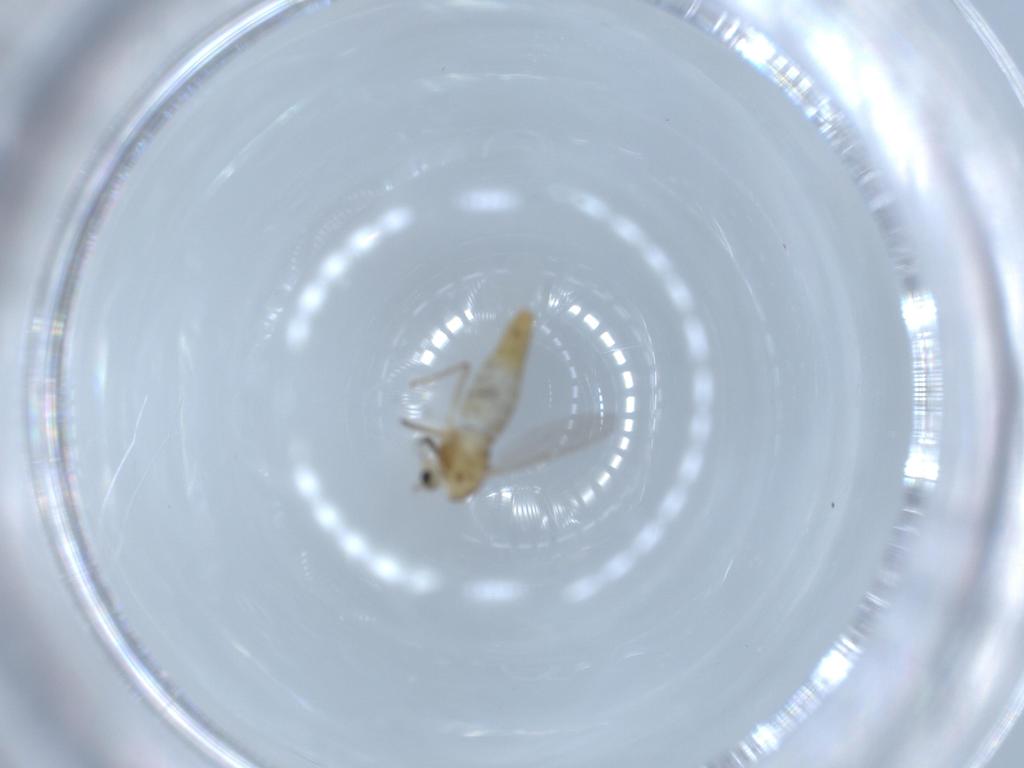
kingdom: Animalia
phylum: Arthropoda
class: Insecta
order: Diptera
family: Micropezidae
